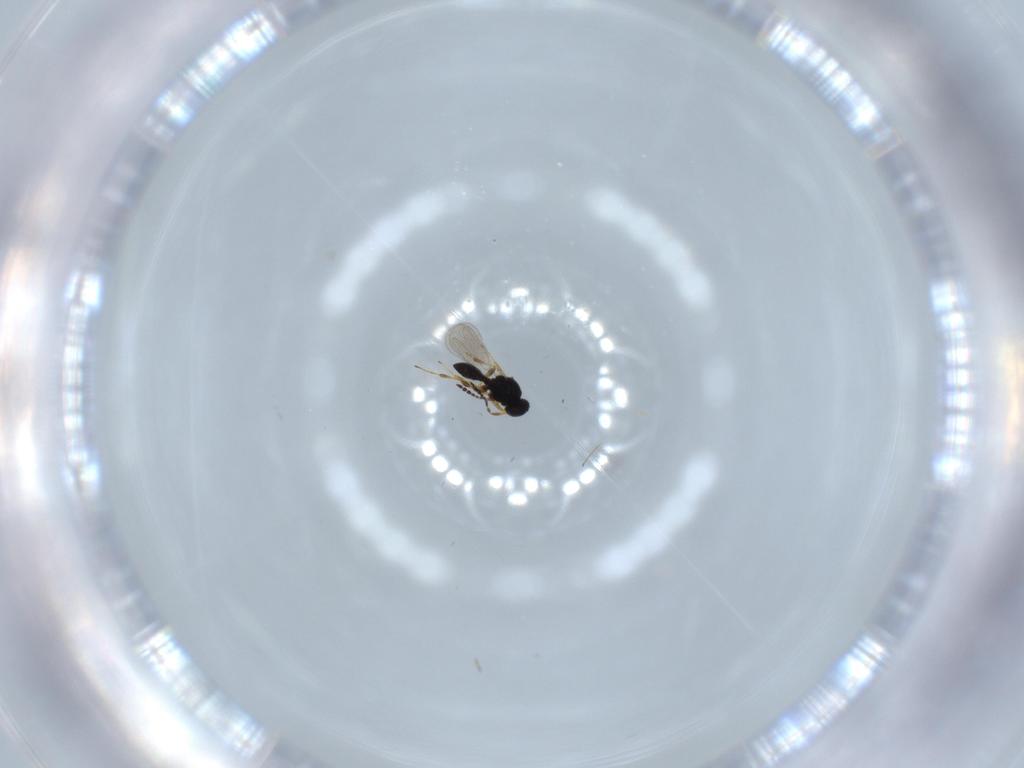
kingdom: Animalia
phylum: Arthropoda
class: Insecta
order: Hymenoptera
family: Platygastridae
